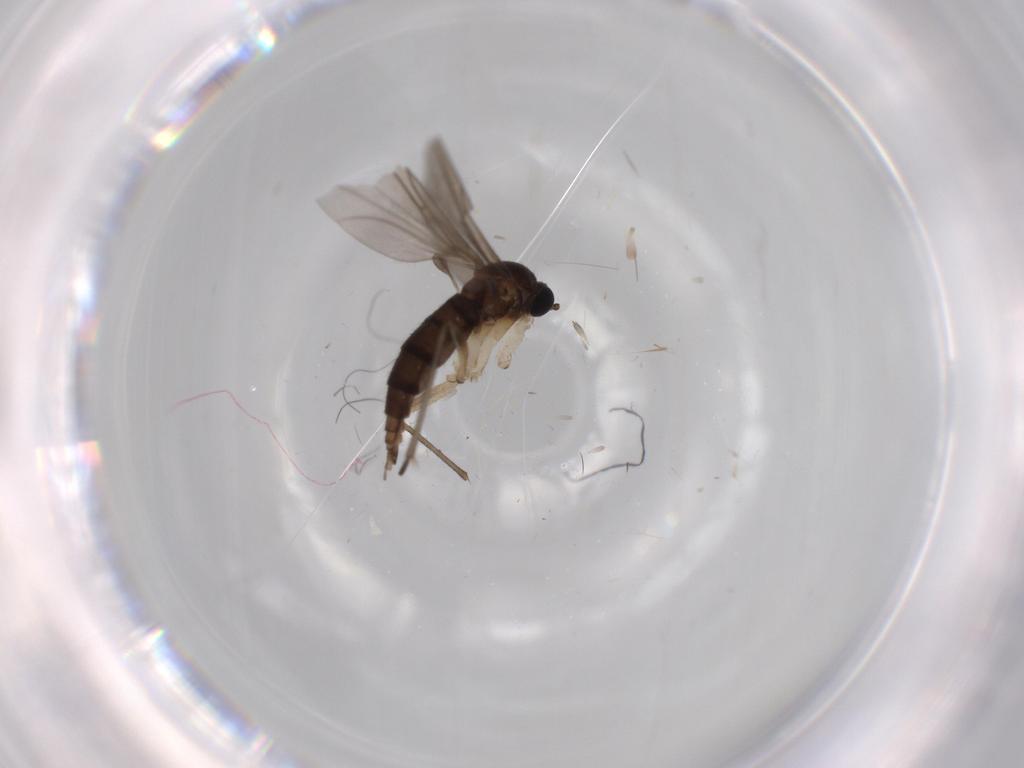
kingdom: Animalia
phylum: Arthropoda
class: Insecta
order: Diptera
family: Sciaridae
